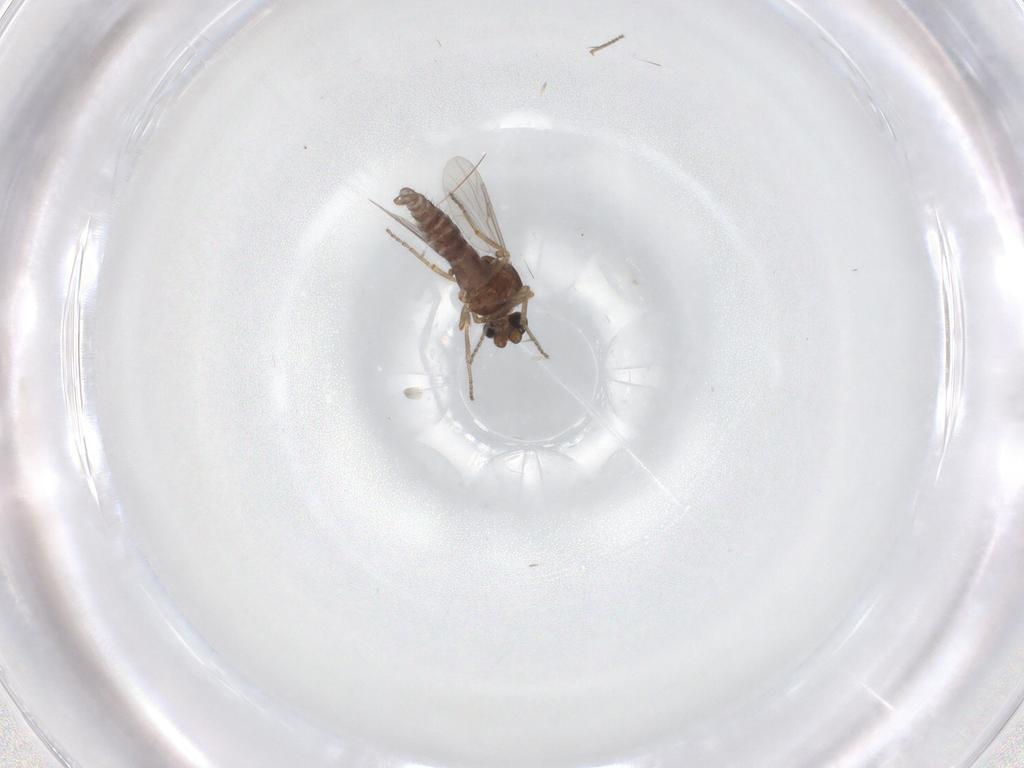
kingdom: Animalia
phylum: Arthropoda
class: Insecta
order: Diptera
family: Ceratopogonidae
